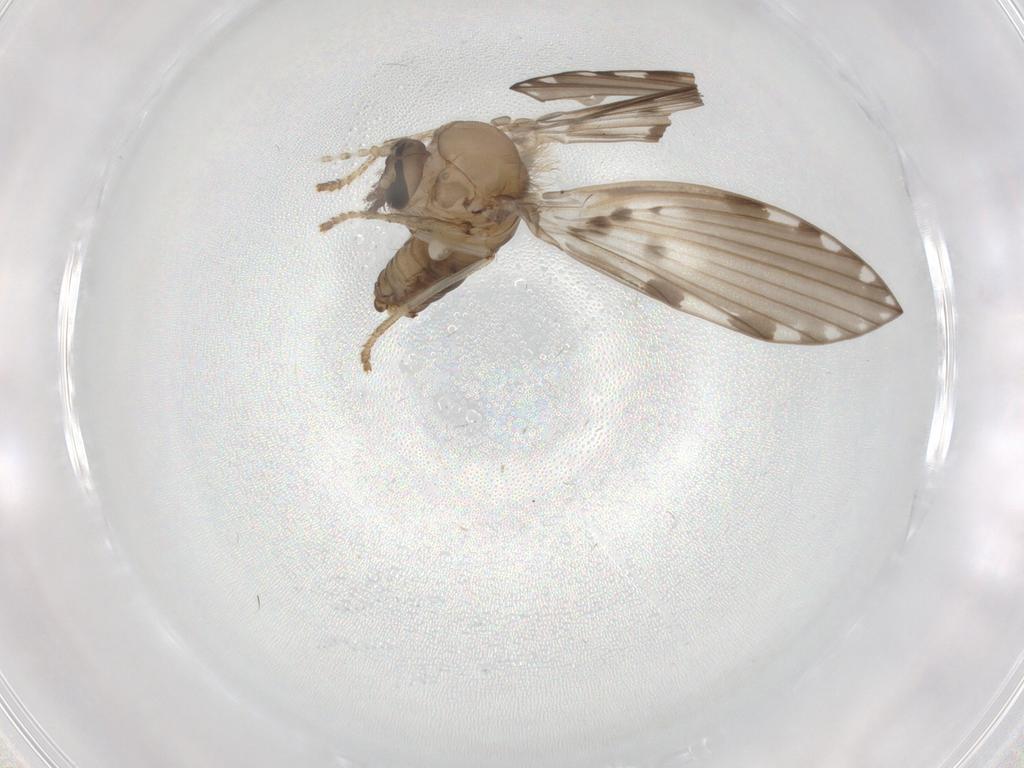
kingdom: Animalia
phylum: Arthropoda
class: Insecta
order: Diptera
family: Psychodidae
